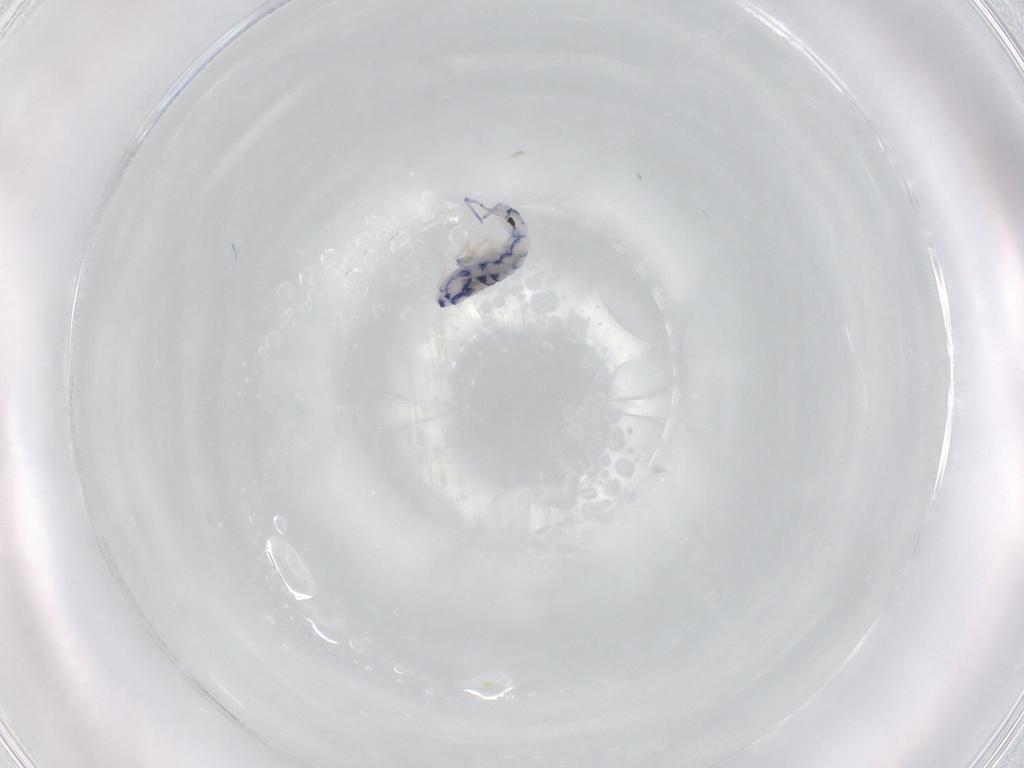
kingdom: Animalia
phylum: Arthropoda
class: Collembola
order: Entomobryomorpha
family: Entomobryidae
